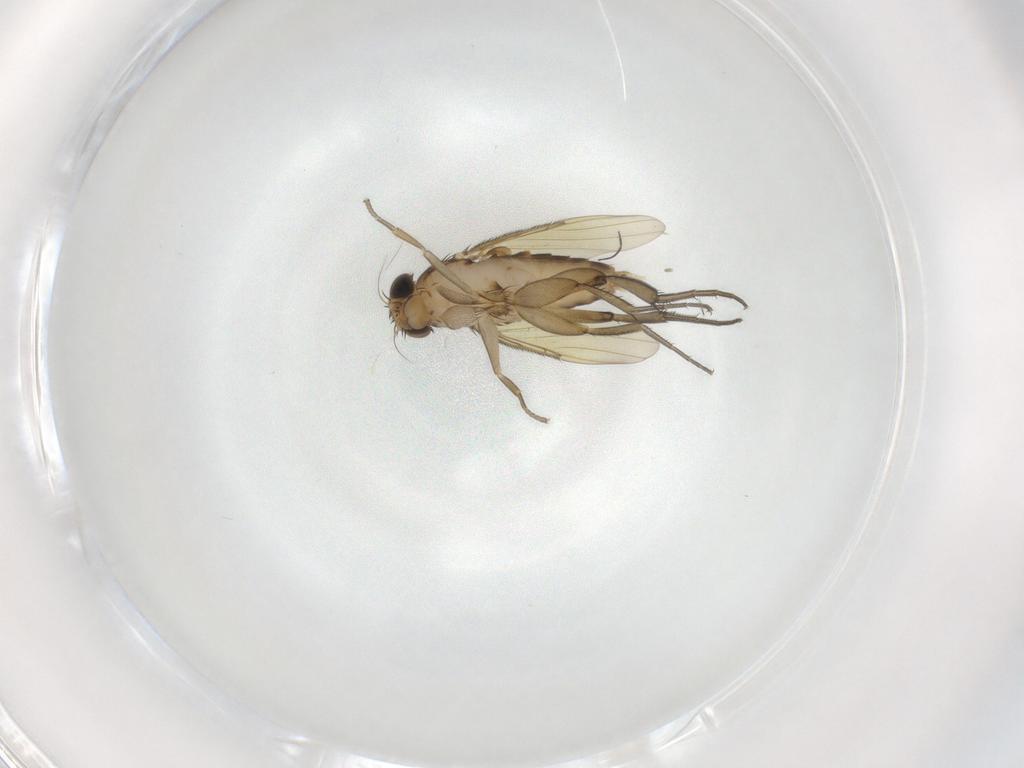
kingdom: Animalia
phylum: Arthropoda
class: Insecta
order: Diptera
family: Phoridae
